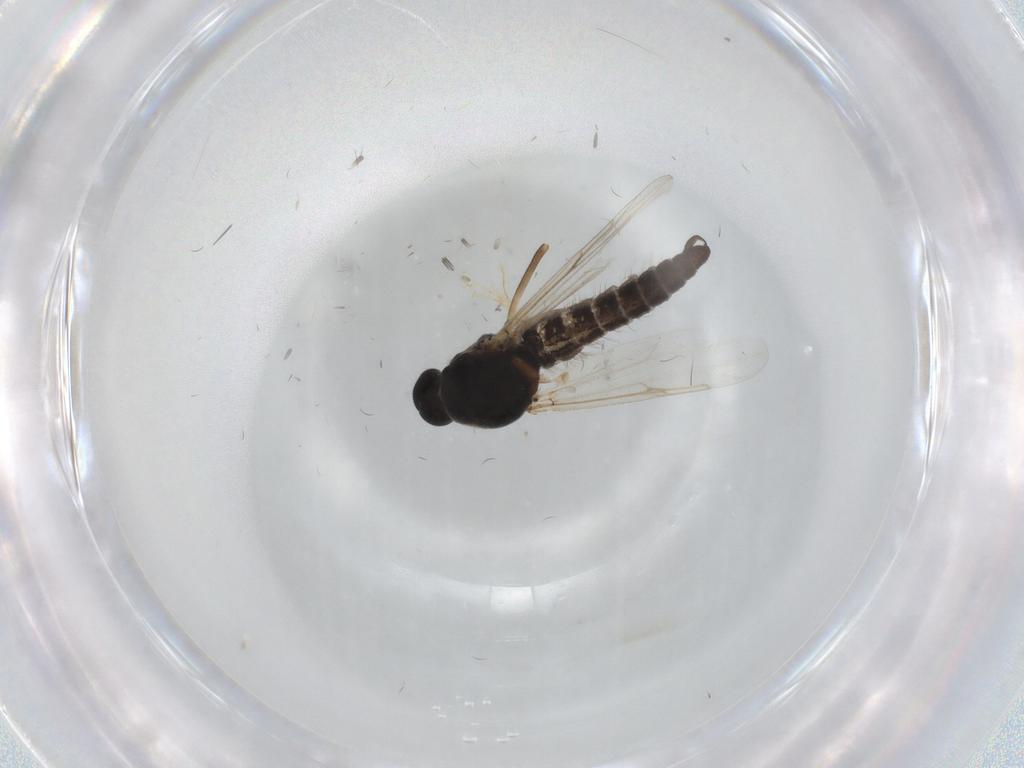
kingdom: Animalia
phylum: Arthropoda
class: Insecta
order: Diptera
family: Ceratopogonidae
